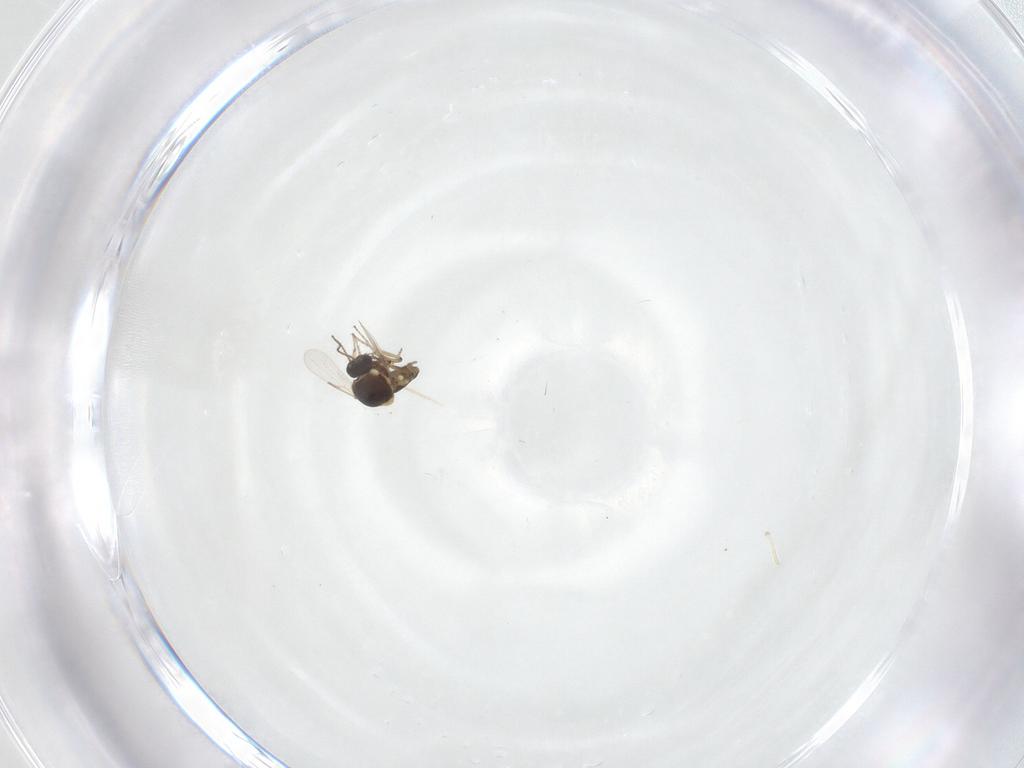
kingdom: Animalia
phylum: Arthropoda
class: Insecta
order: Diptera
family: Ceratopogonidae
